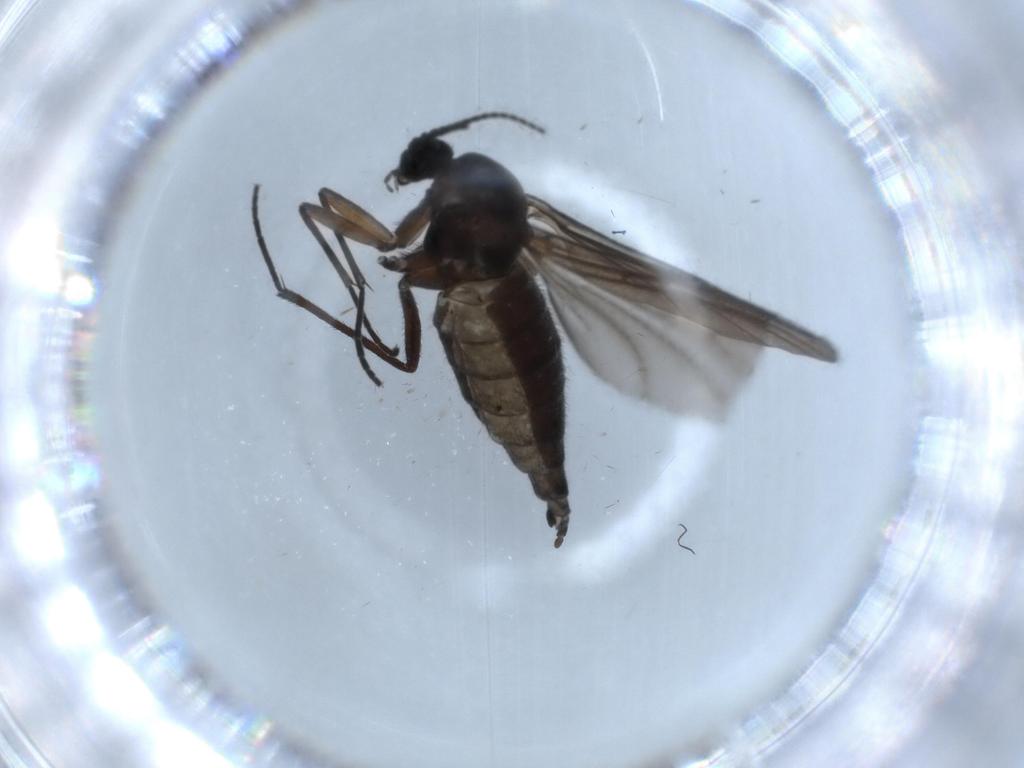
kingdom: Animalia
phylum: Arthropoda
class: Insecta
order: Diptera
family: Sciaridae
